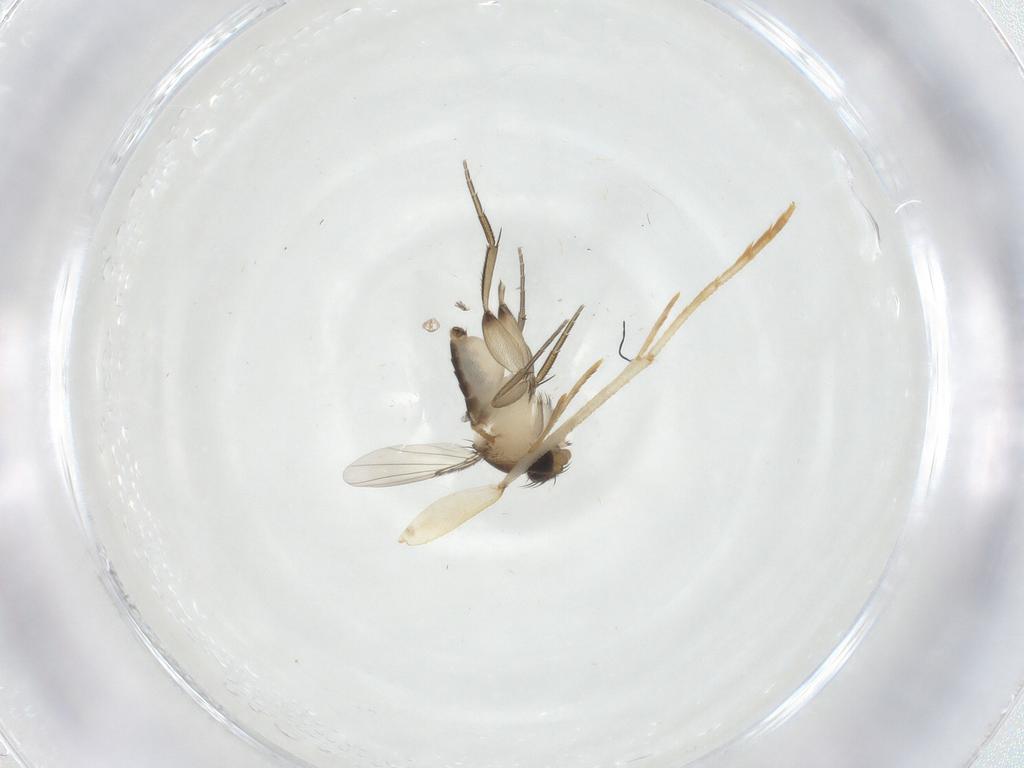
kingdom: Animalia
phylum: Arthropoda
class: Insecta
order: Diptera
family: Phoridae
